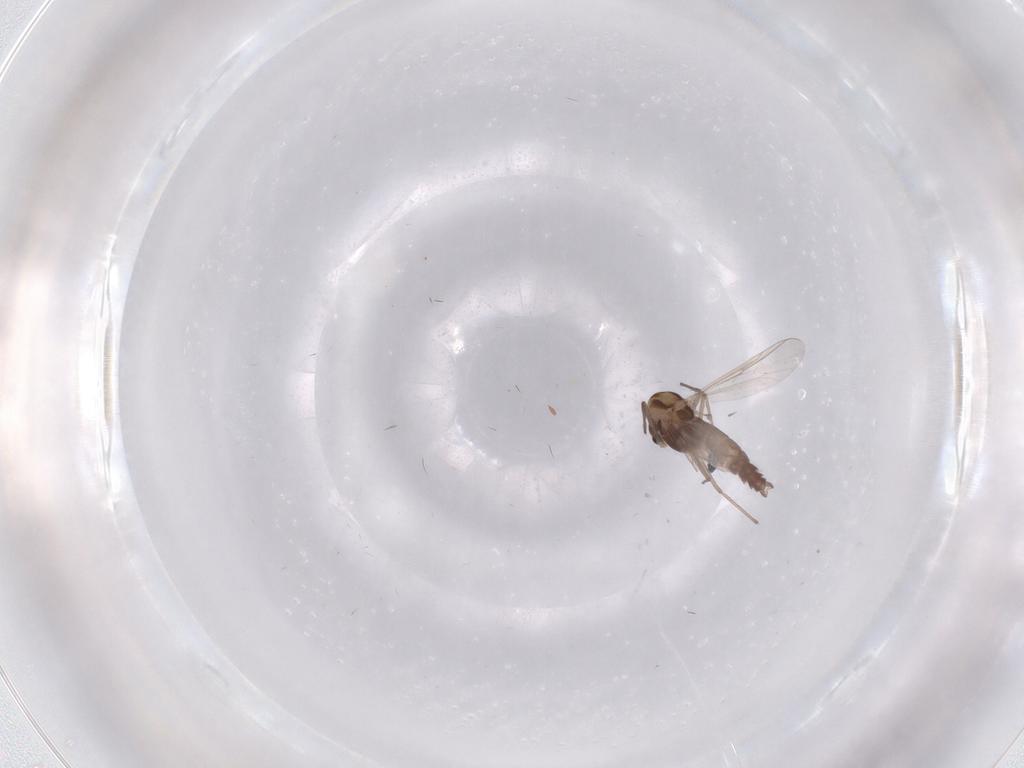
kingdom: Animalia
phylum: Arthropoda
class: Insecta
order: Diptera
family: Chironomidae
